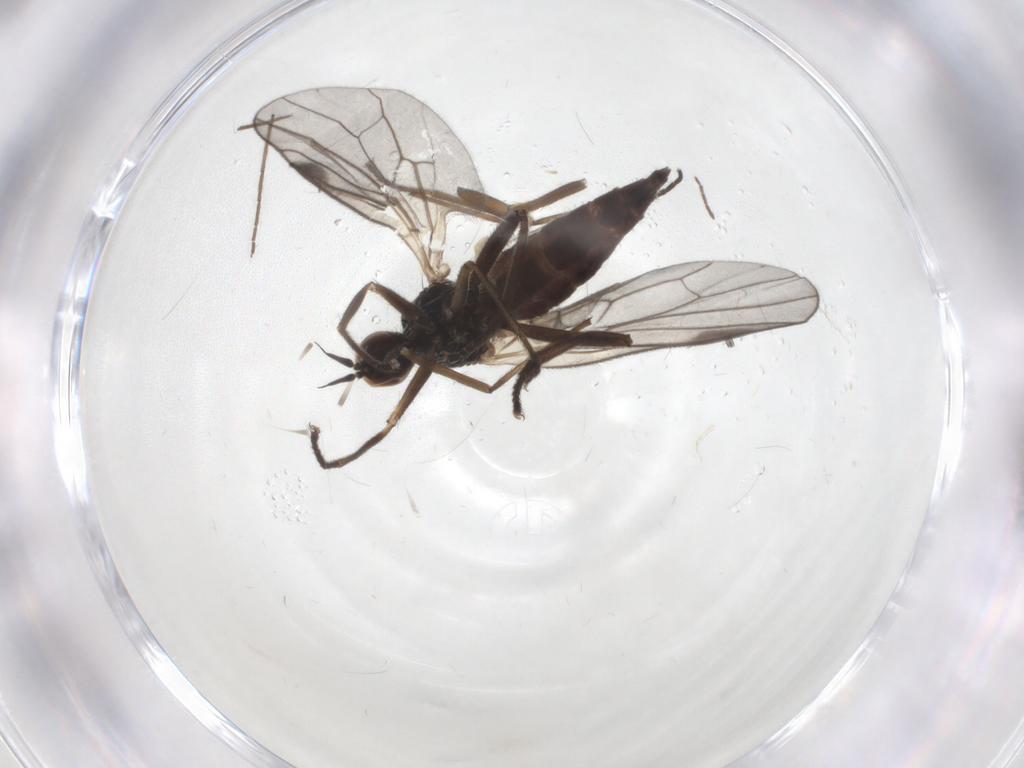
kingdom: Animalia
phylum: Arthropoda
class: Insecta
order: Diptera
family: Hybotidae
